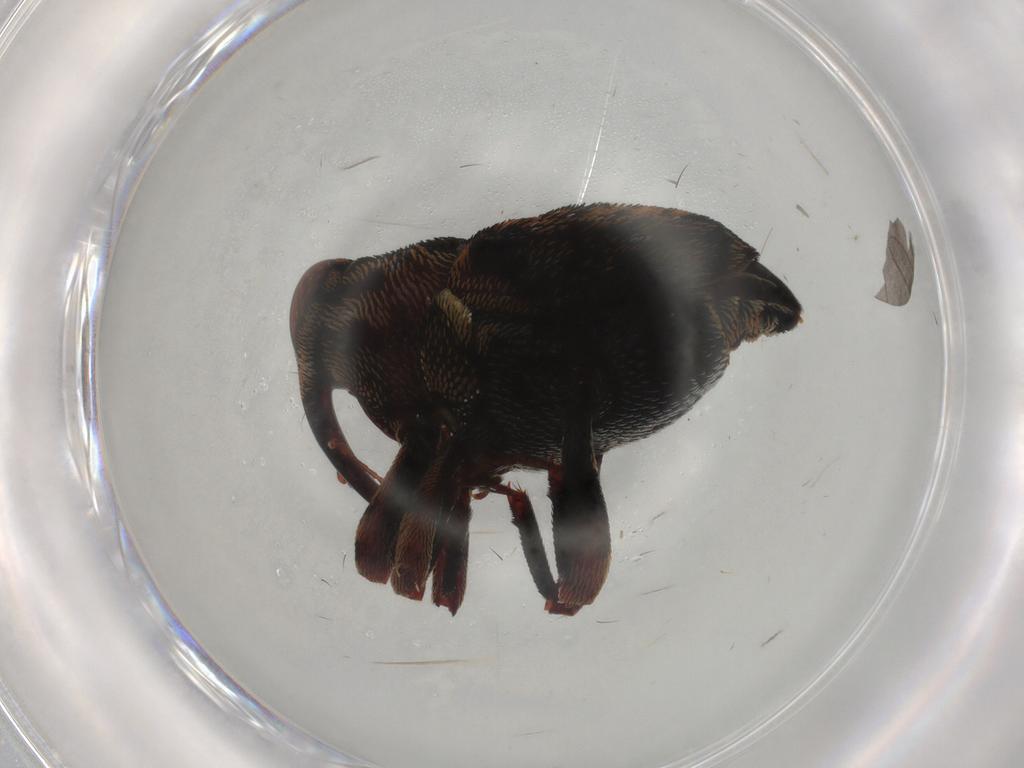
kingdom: Animalia
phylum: Arthropoda
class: Insecta
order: Coleoptera
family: Curculionidae
